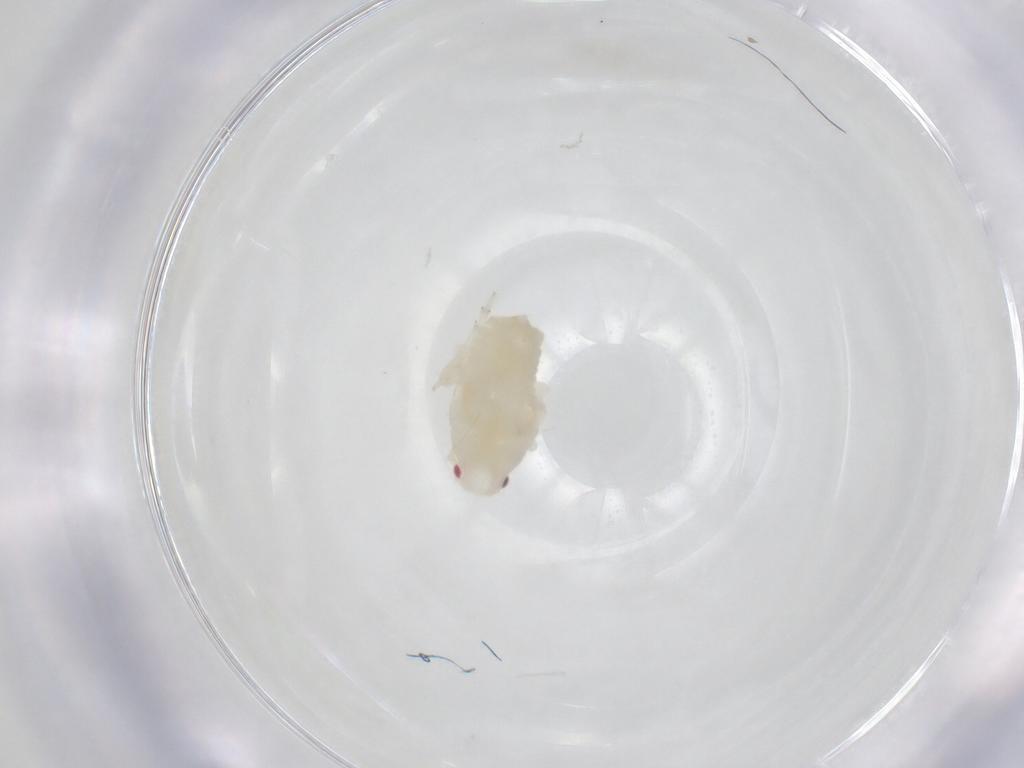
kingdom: Animalia
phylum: Arthropoda
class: Insecta
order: Hemiptera
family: Flatidae
